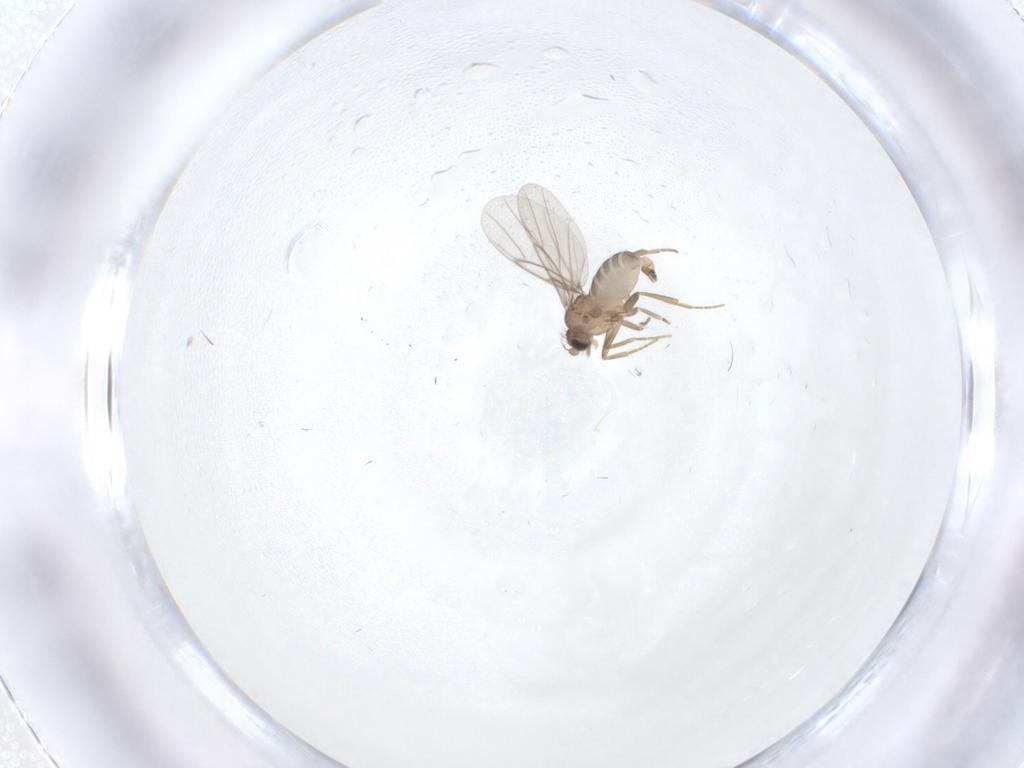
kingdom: Animalia
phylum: Arthropoda
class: Insecta
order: Diptera
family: Cecidomyiidae
